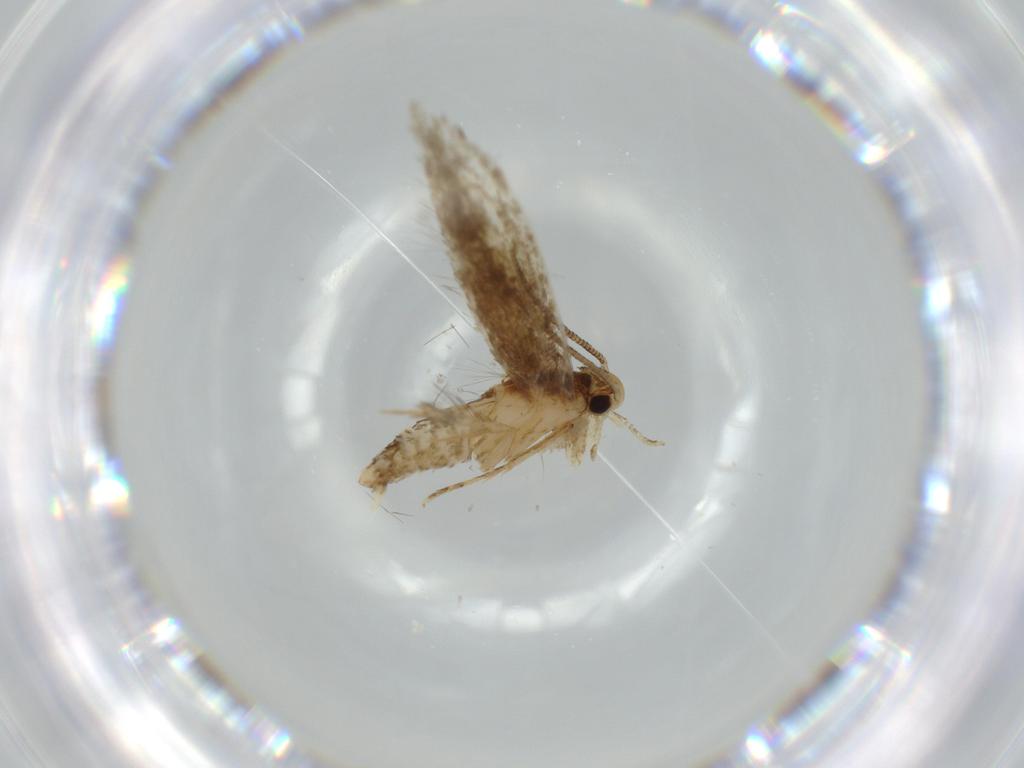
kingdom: Animalia
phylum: Arthropoda
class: Insecta
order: Lepidoptera
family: Tineidae
